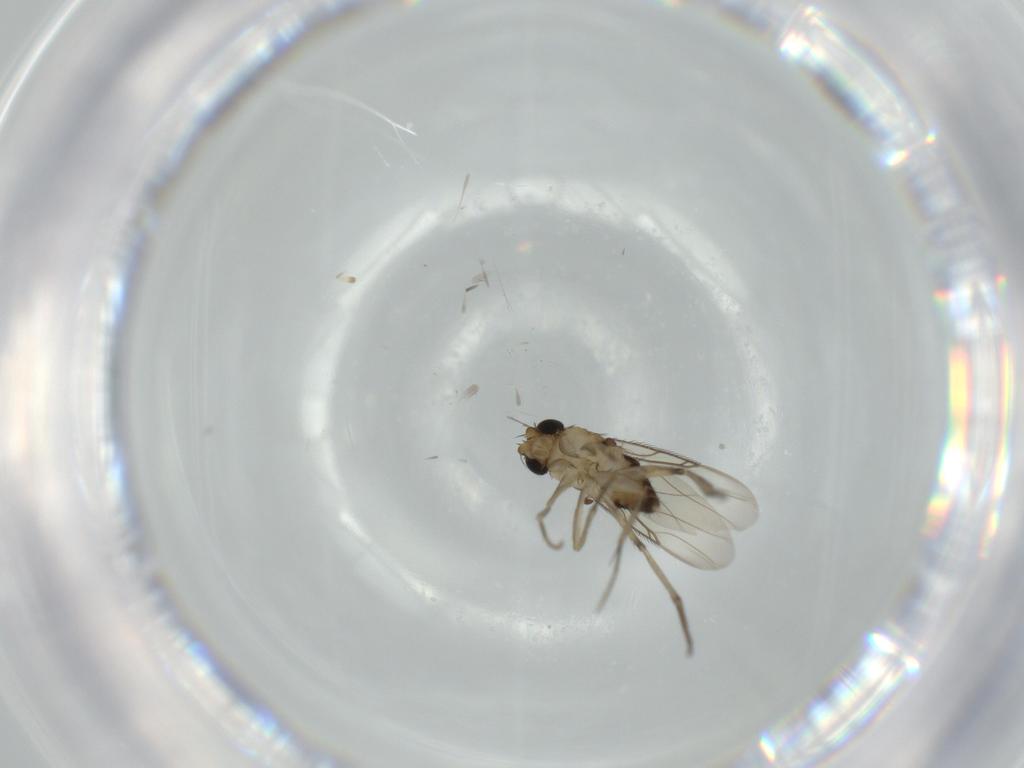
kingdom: Animalia
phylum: Arthropoda
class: Insecta
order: Diptera
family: Phoridae
